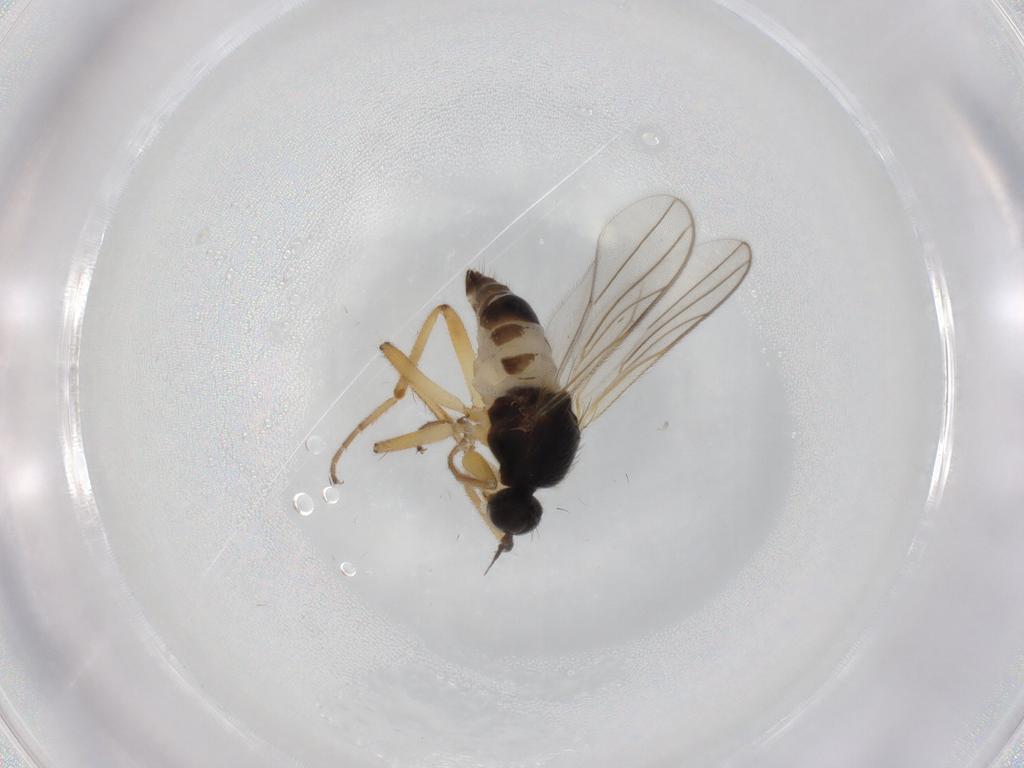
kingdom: Animalia
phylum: Arthropoda
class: Insecta
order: Diptera
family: Hybotidae
